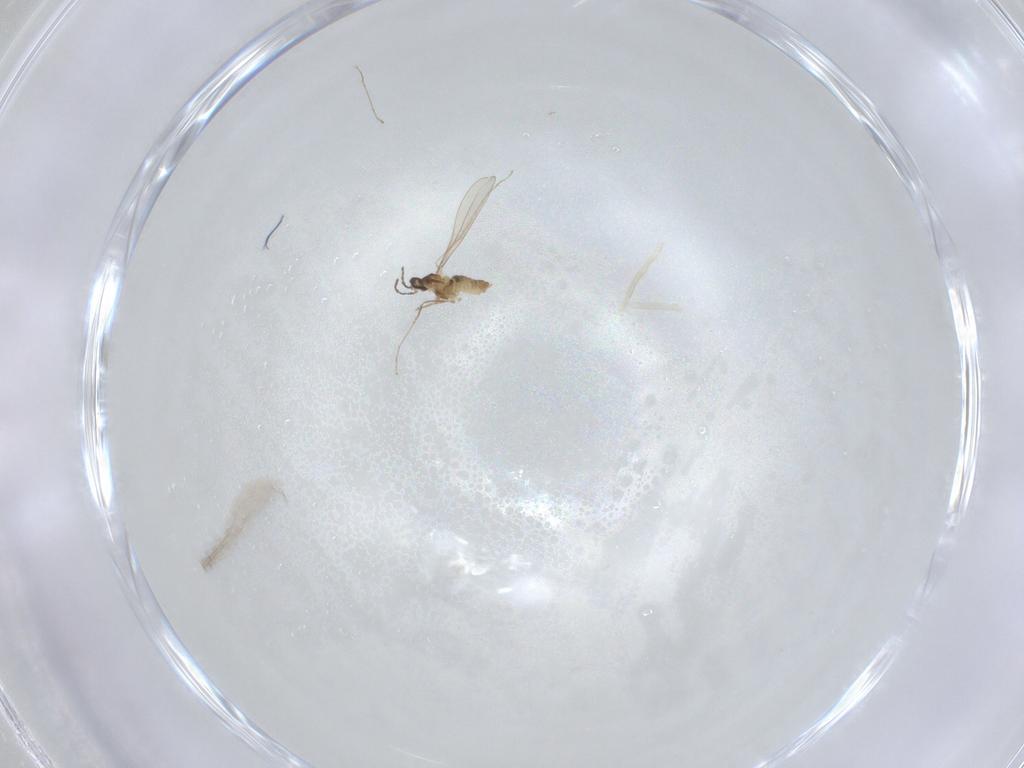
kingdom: Animalia
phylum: Arthropoda
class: Insecta
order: Diptera
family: Cecidomyiidae
